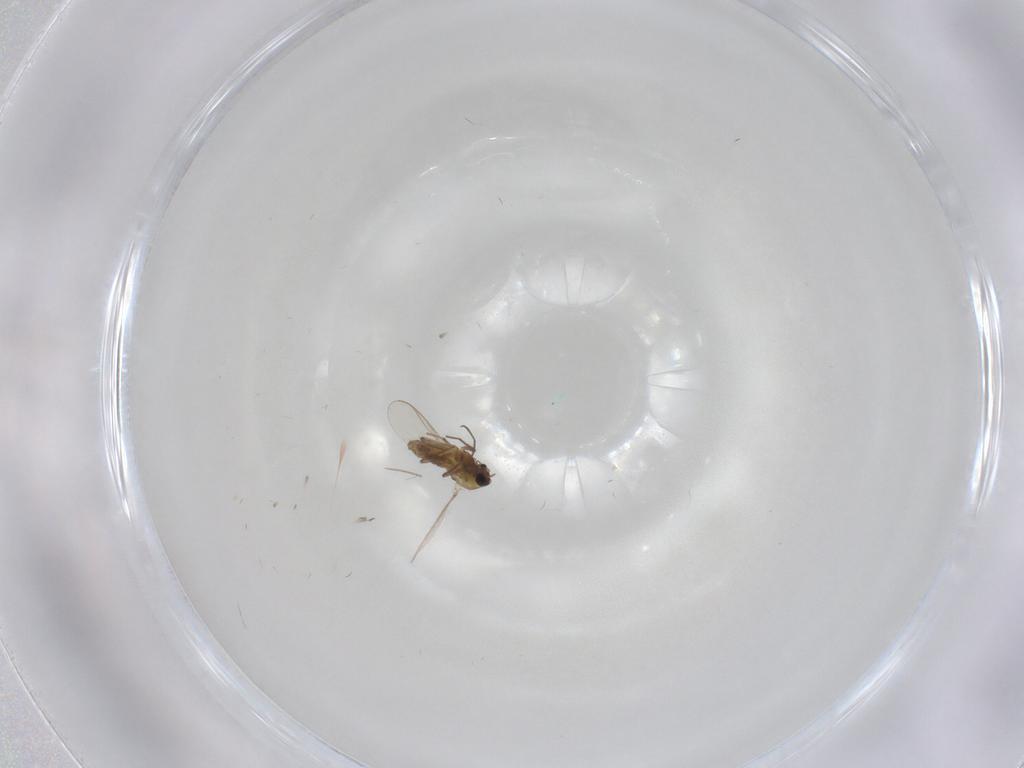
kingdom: Animalia
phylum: Arthropoda
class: Insecta
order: Diptera
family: Chironomidae
